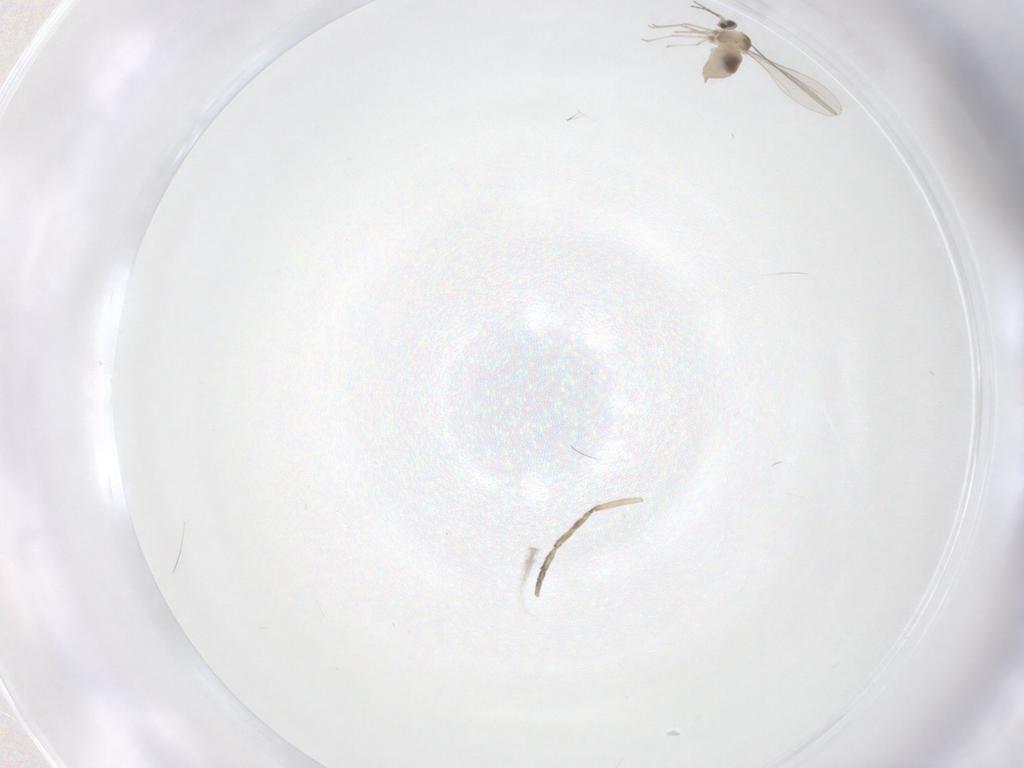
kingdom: Animalia
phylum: Arthropoda
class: Insecta
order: Diptera
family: Cecidomyiidae
